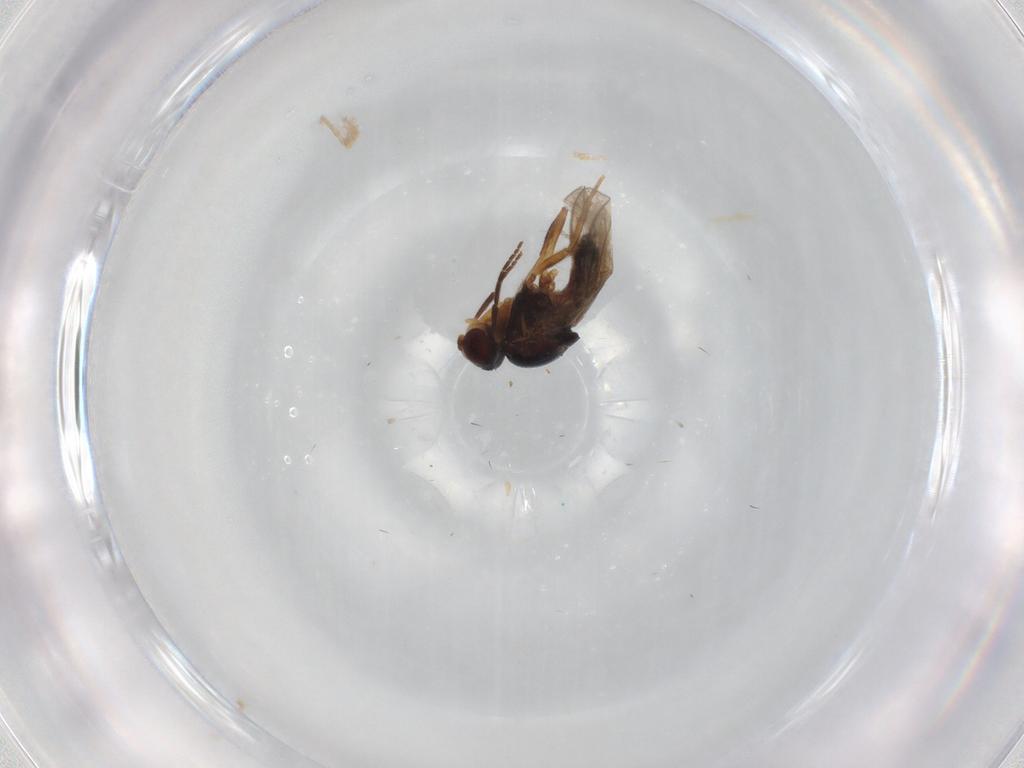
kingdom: Animalia
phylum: Arthropoda
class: Insecta
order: Diptera
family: Chloropidae
